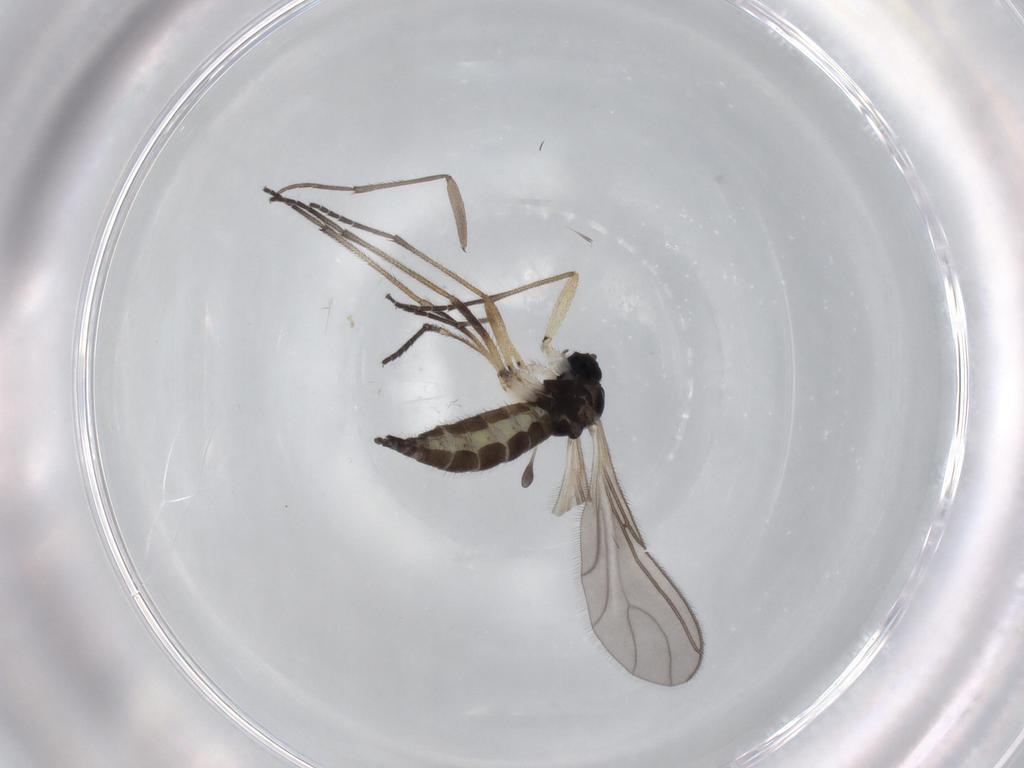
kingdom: Animalia
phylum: Arthropoda
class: Insecta
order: Diptera
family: Sciaridae
